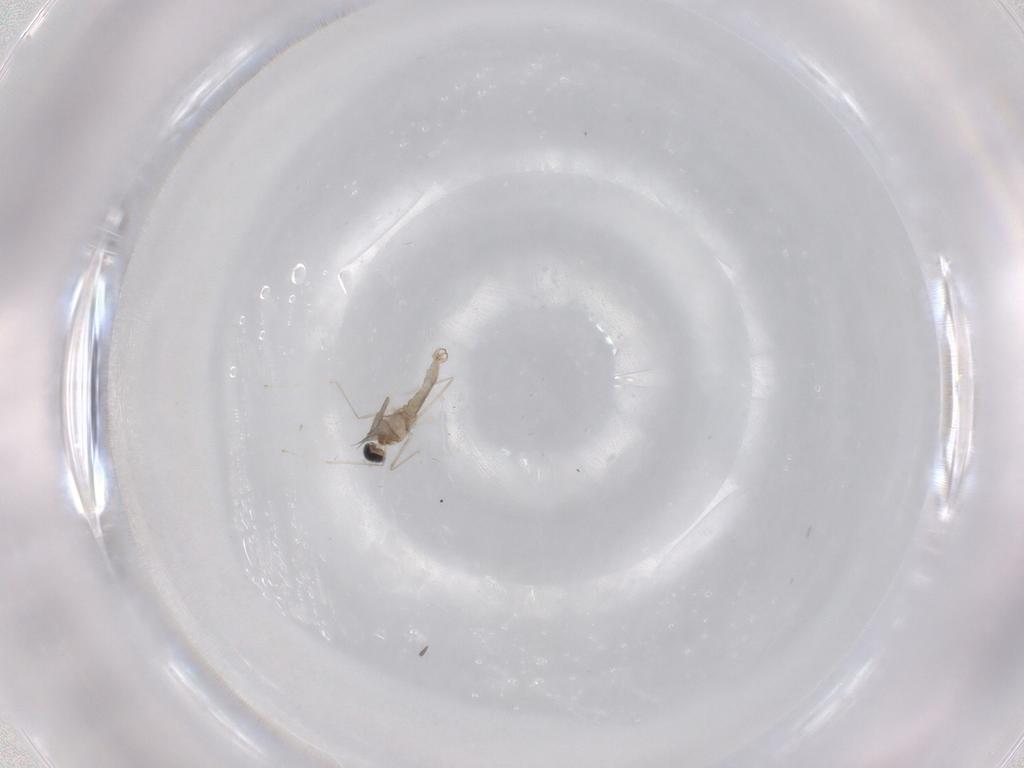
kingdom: Animalia
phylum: Arthropoda
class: Insecta
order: Diptera
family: Cecidomyiidae
